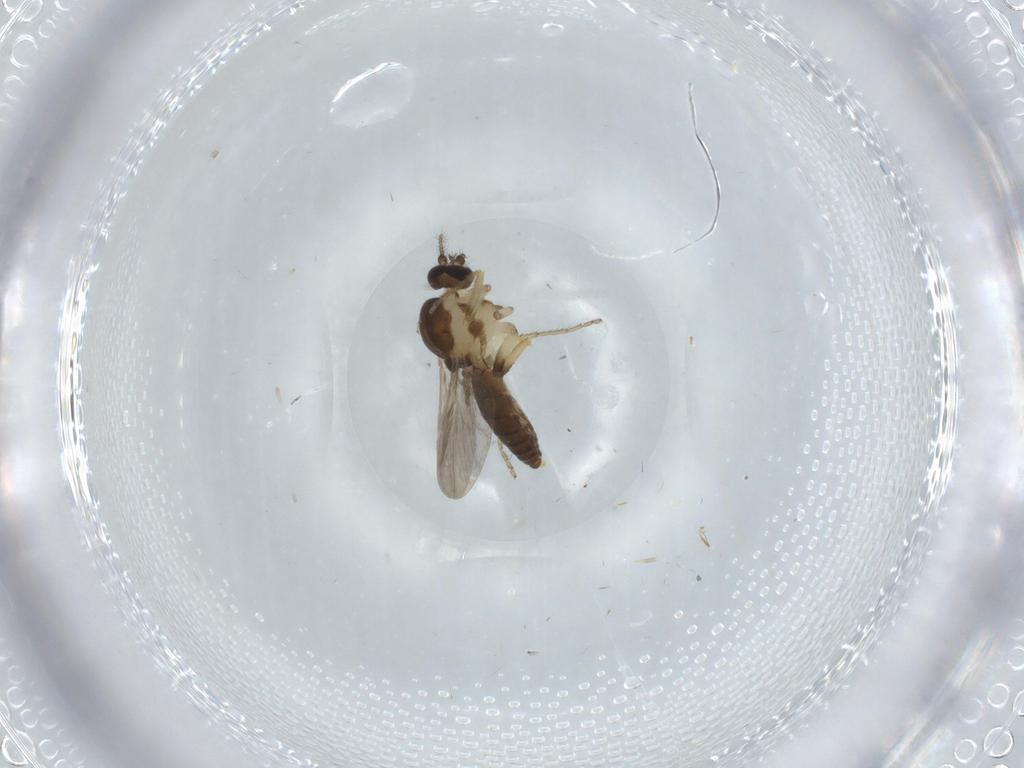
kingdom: Animalia
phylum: Arthropoda
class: Insecta
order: Diptera
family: Ceratopogonidae
